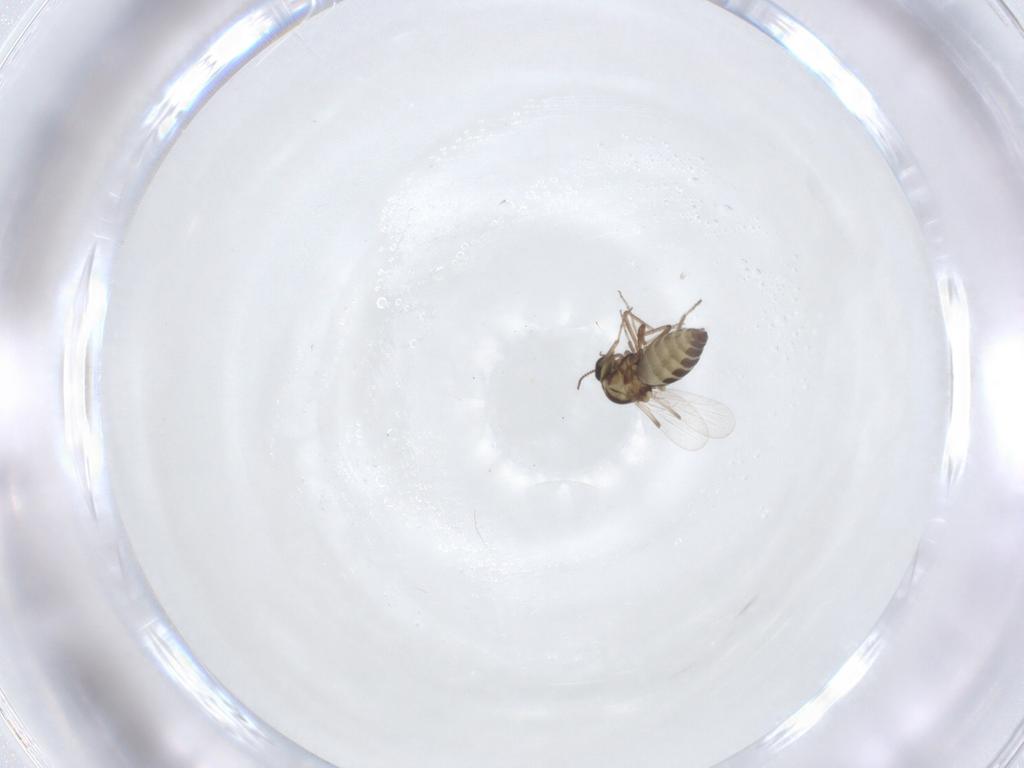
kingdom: Animalia
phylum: Arthropoda
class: Insecta
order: Diptera
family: Ceratopogonidae
